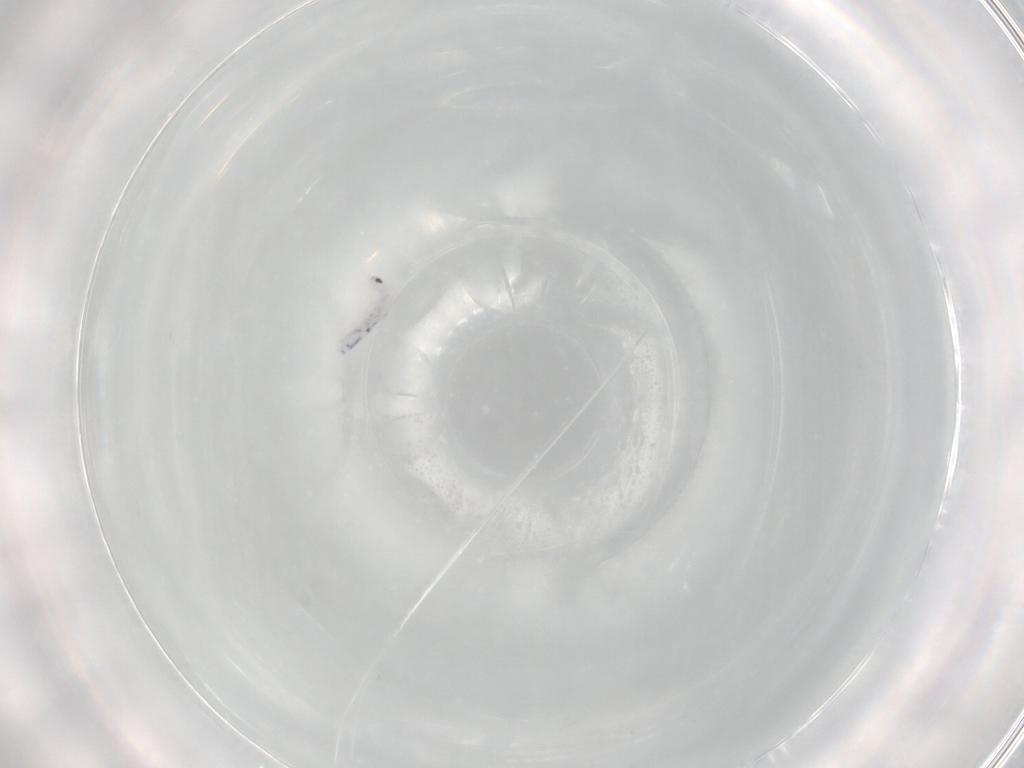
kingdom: Animalia
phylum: Arthropoda
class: Collembola
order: Entomobryomorpha
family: Entomobryidae
